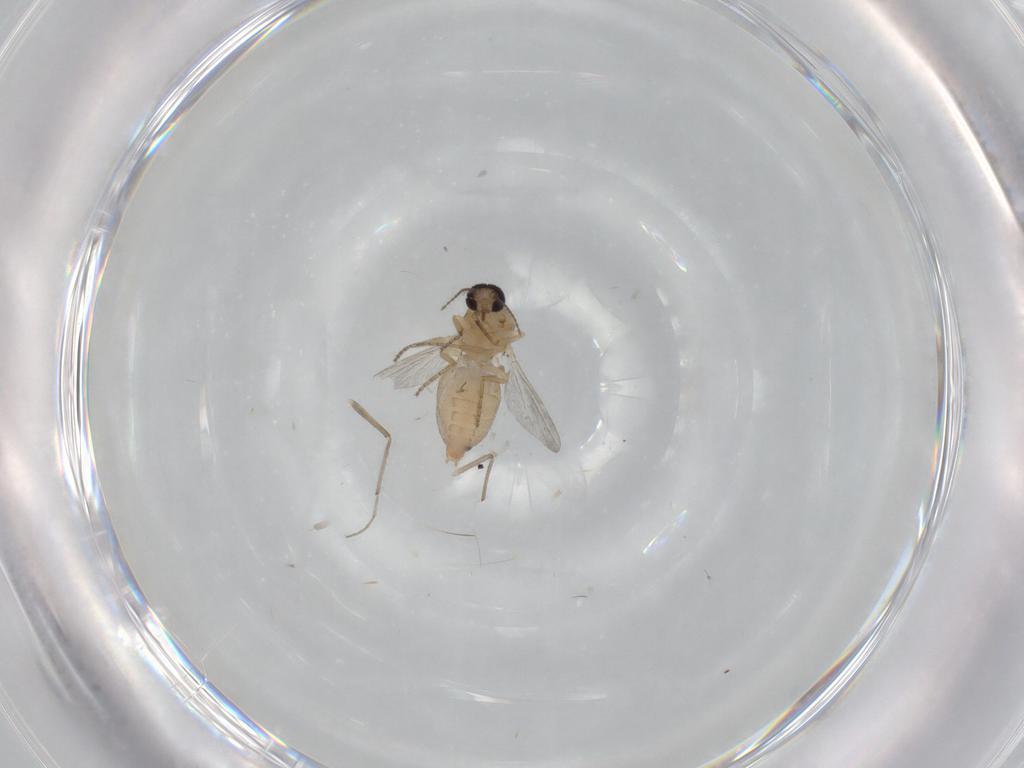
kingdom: Animalia
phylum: Arthropoda
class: Insecta
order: Diptera
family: Ceratopogonidae
